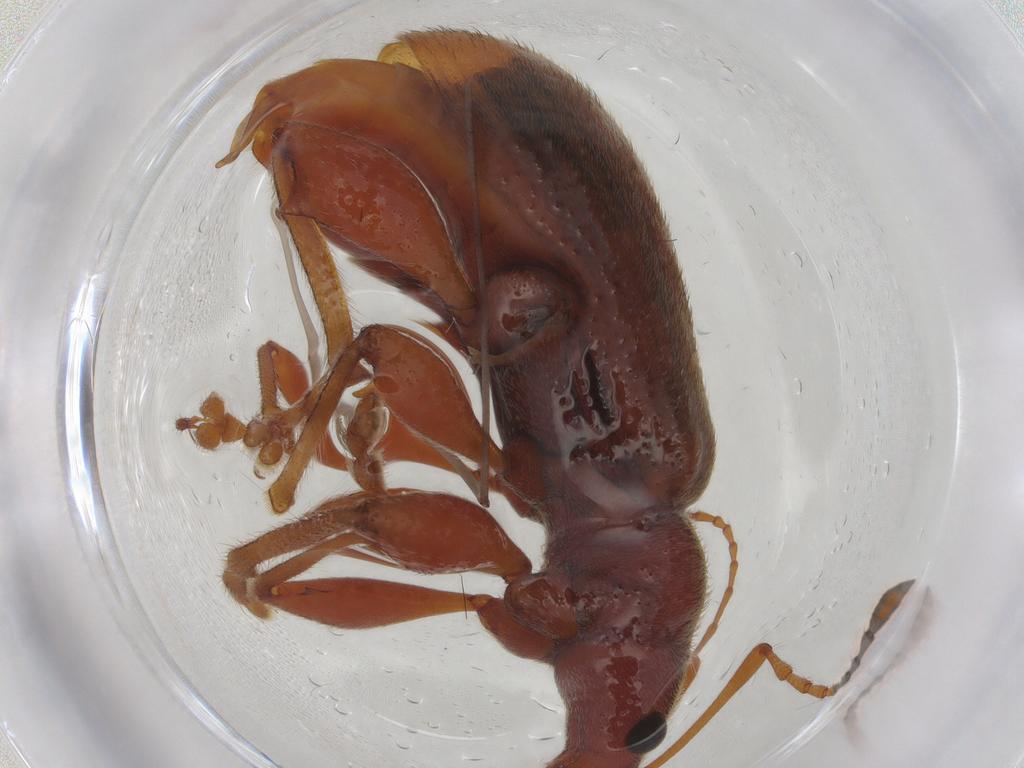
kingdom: Animalia
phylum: Arthropoda
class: Insecta
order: Coleoptera
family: Curculionidae
